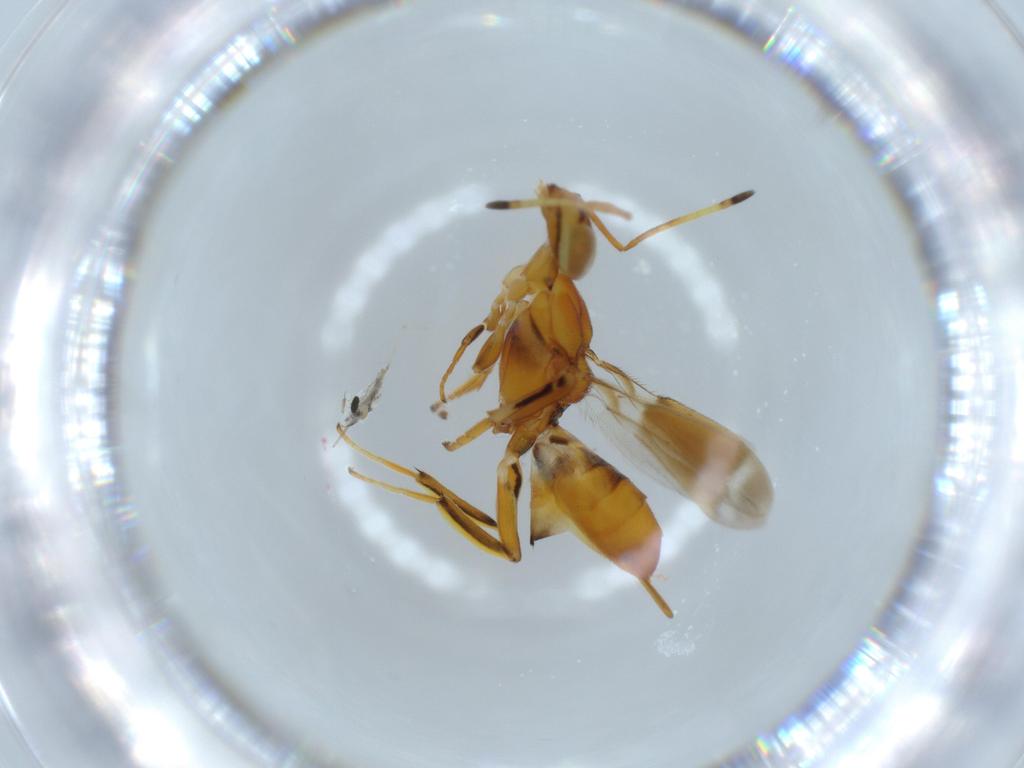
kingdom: Animalia
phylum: Arthropoda
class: Insecta
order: Hymenoptera
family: Eupelmidae
